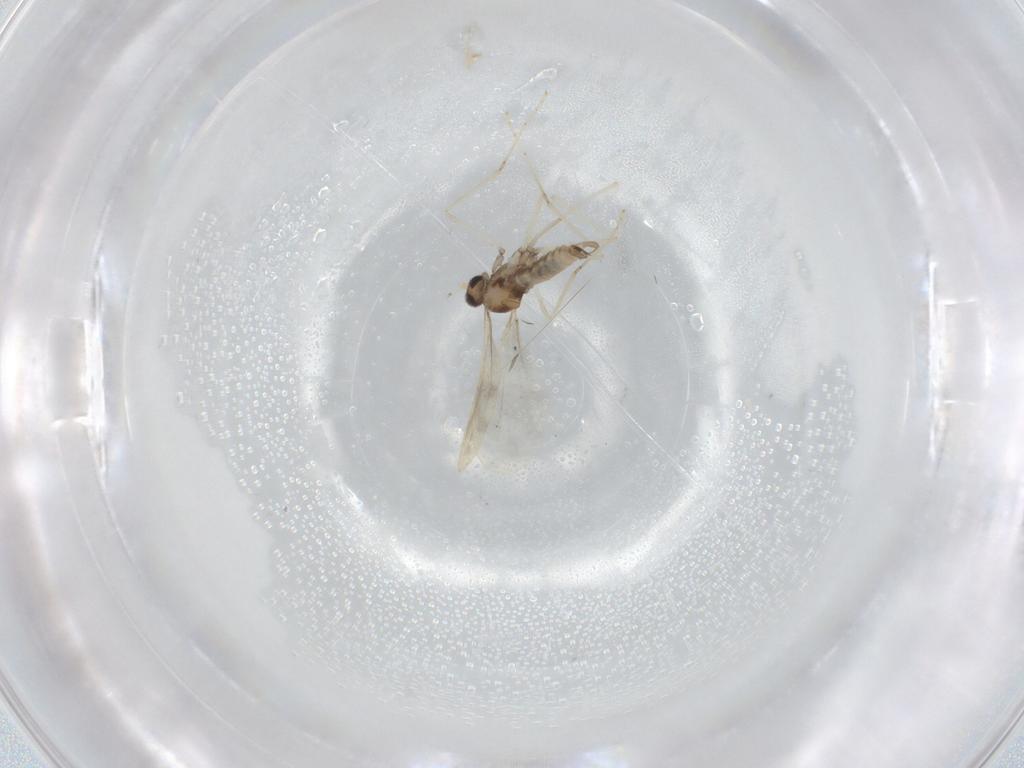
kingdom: Animalia
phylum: Arthropoda
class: Insecta
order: Diptera
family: Cecidomyiidae
